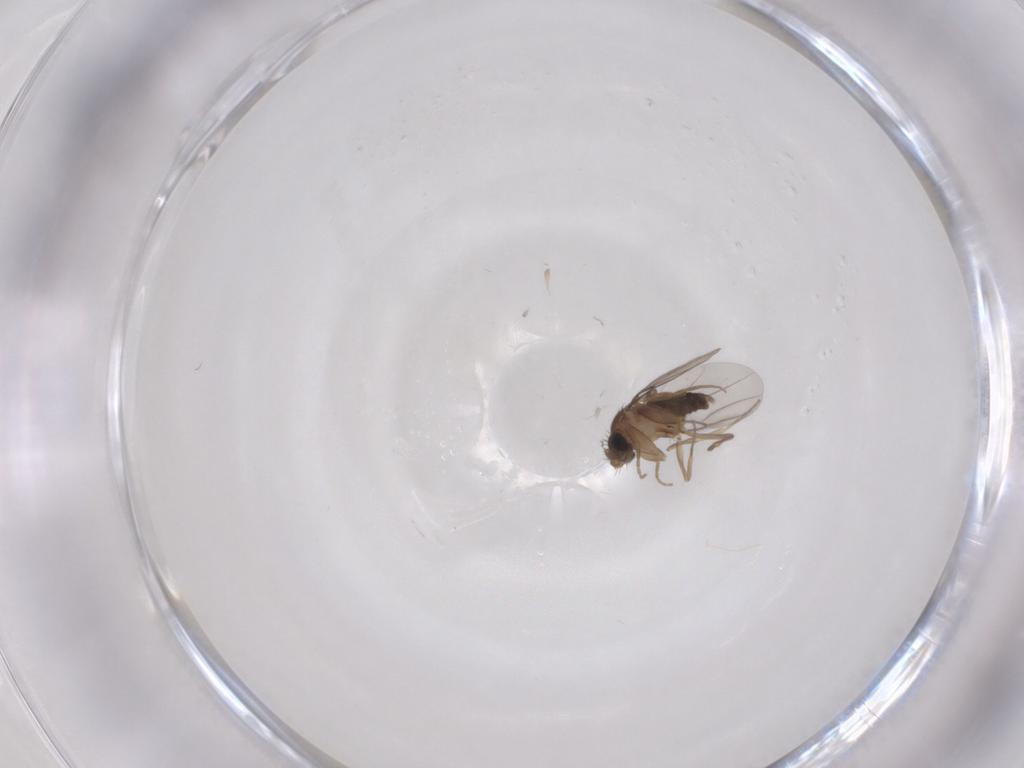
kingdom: Animalia
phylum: Arthropoda
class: Insecta
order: Diptera
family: Phoridae
